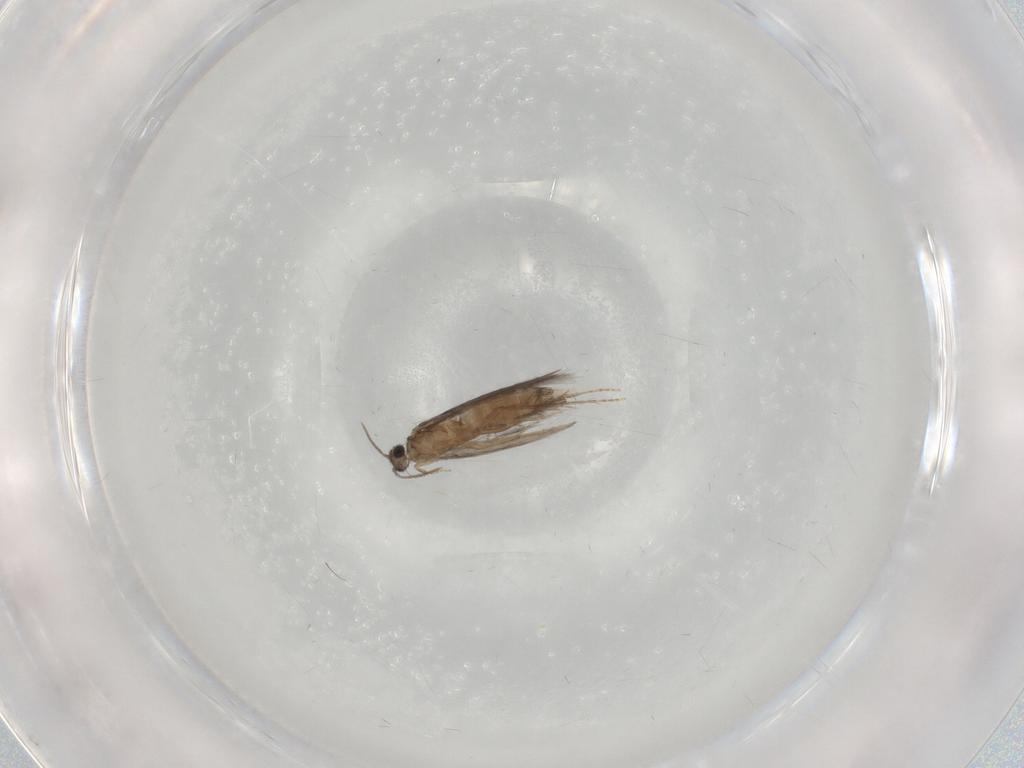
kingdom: Animalia
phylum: Arthropoda
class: Insecta
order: Trichoptera
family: Hydroptilidae
